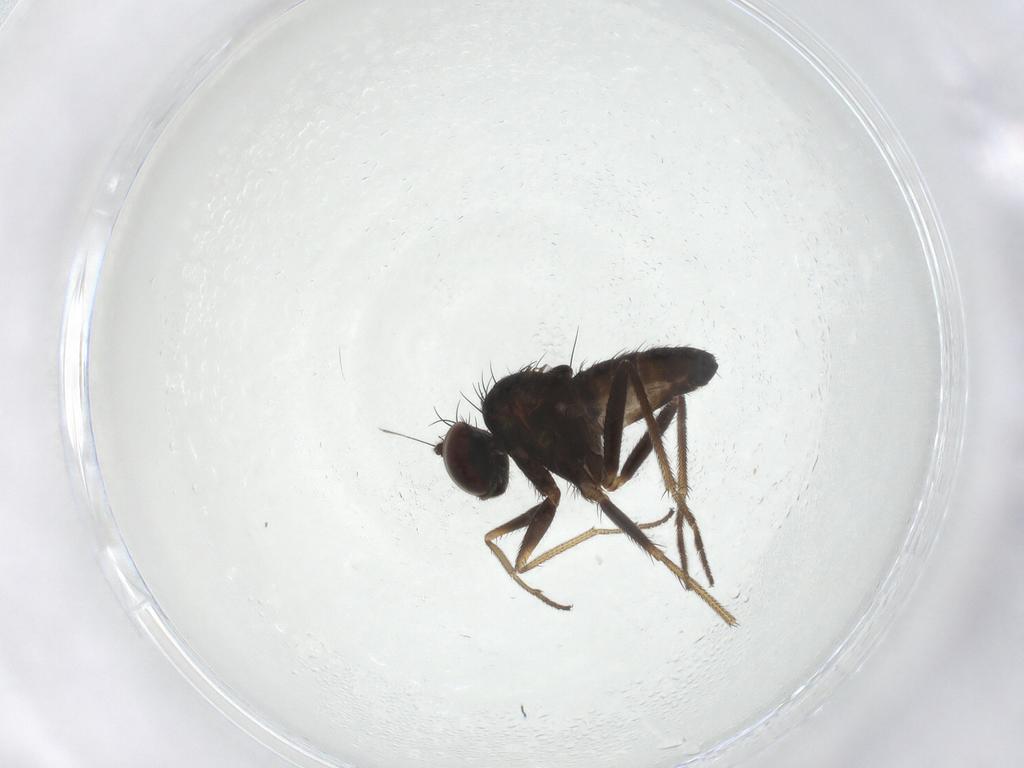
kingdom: Animalia
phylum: Arthropoda
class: Insecta
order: Diptera
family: Dolichopodidae
